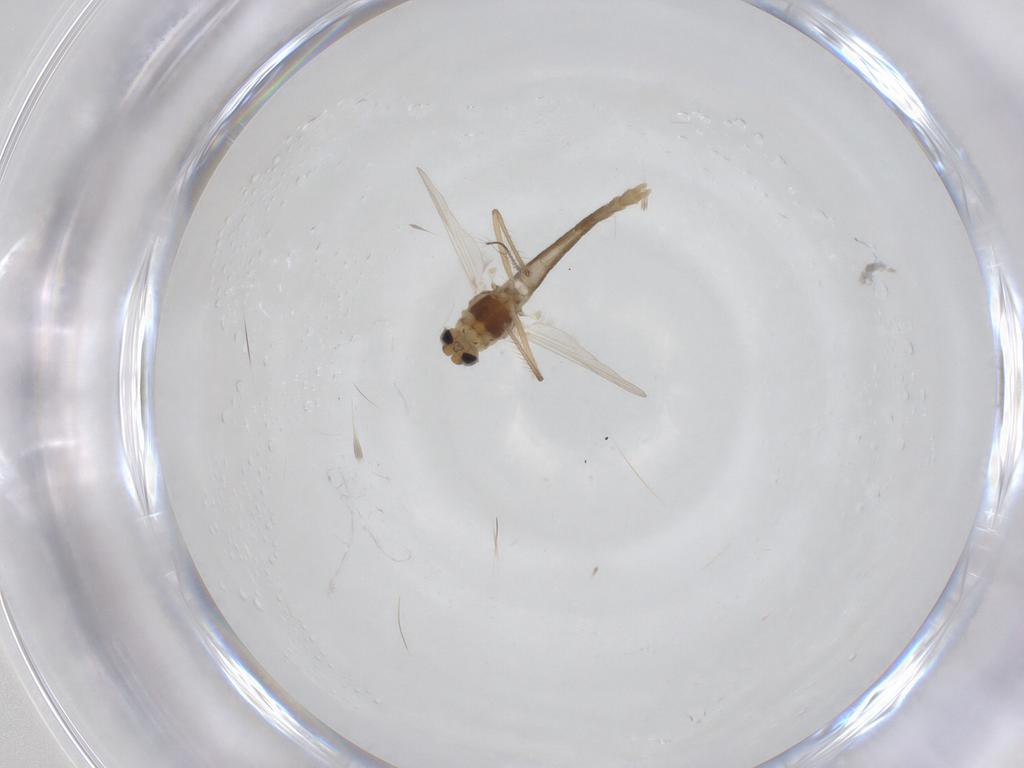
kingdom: Animalia
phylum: Arthropoda
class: Insecta
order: Diptera
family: Chironomidae
